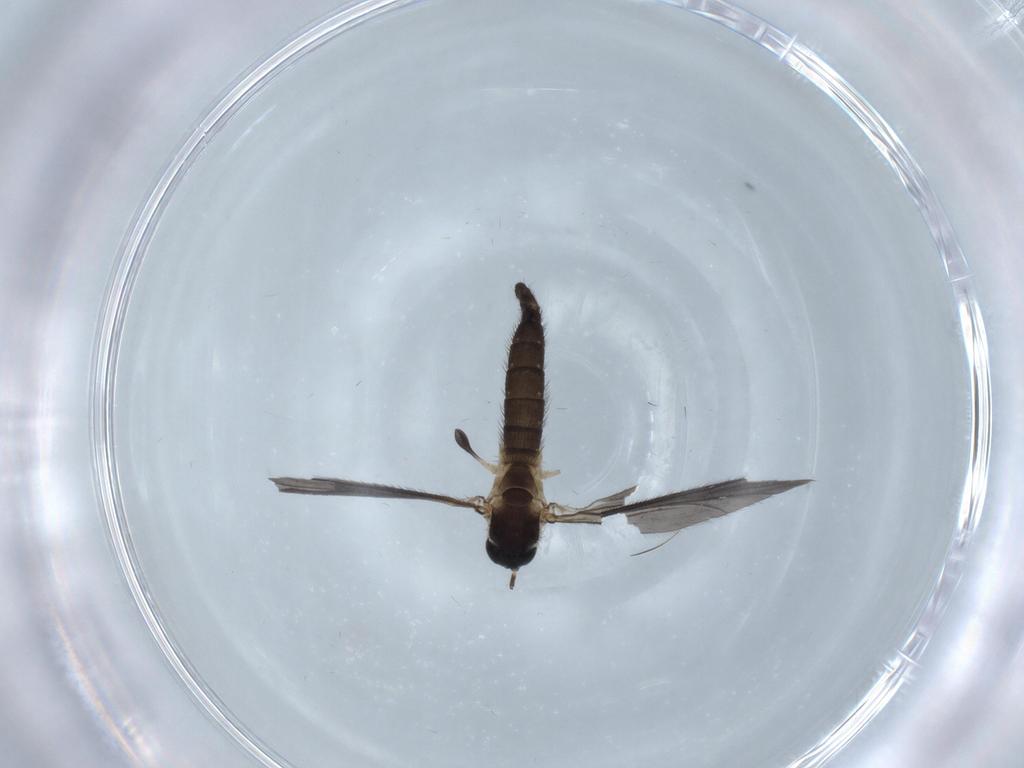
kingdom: Animalia
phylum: Arthropoda
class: Insecta
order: Diptera
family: Sciaridae
